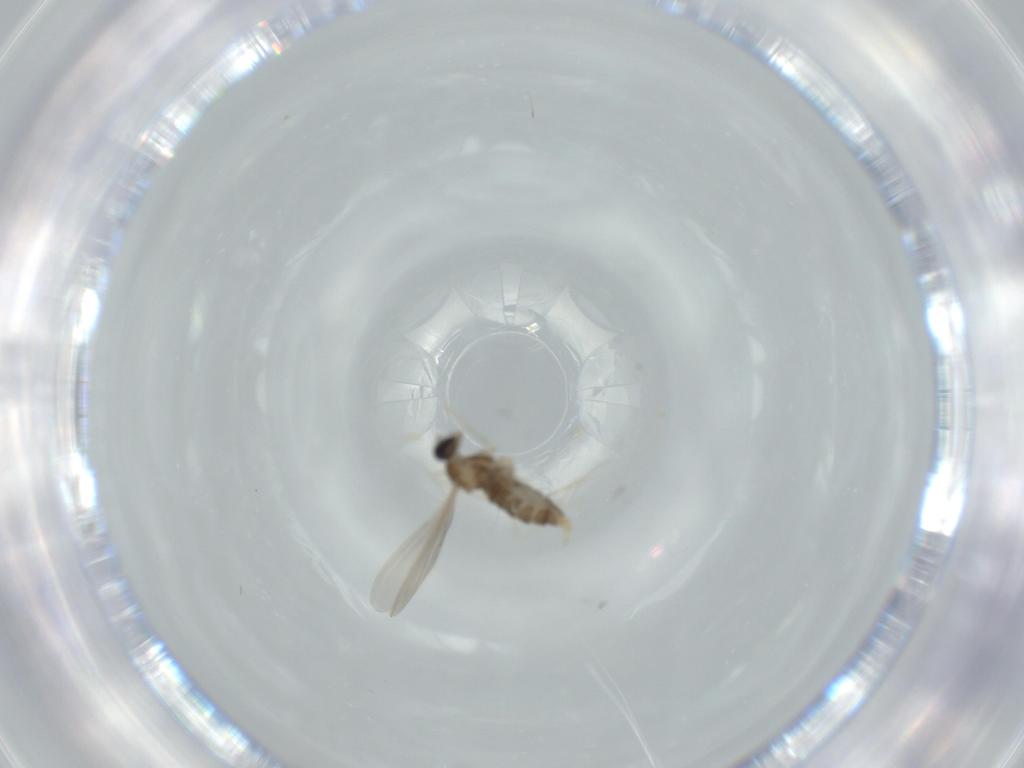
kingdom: Animalia
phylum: Arthropoda
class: Insecta
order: Diptera
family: Cecidomyiidae
